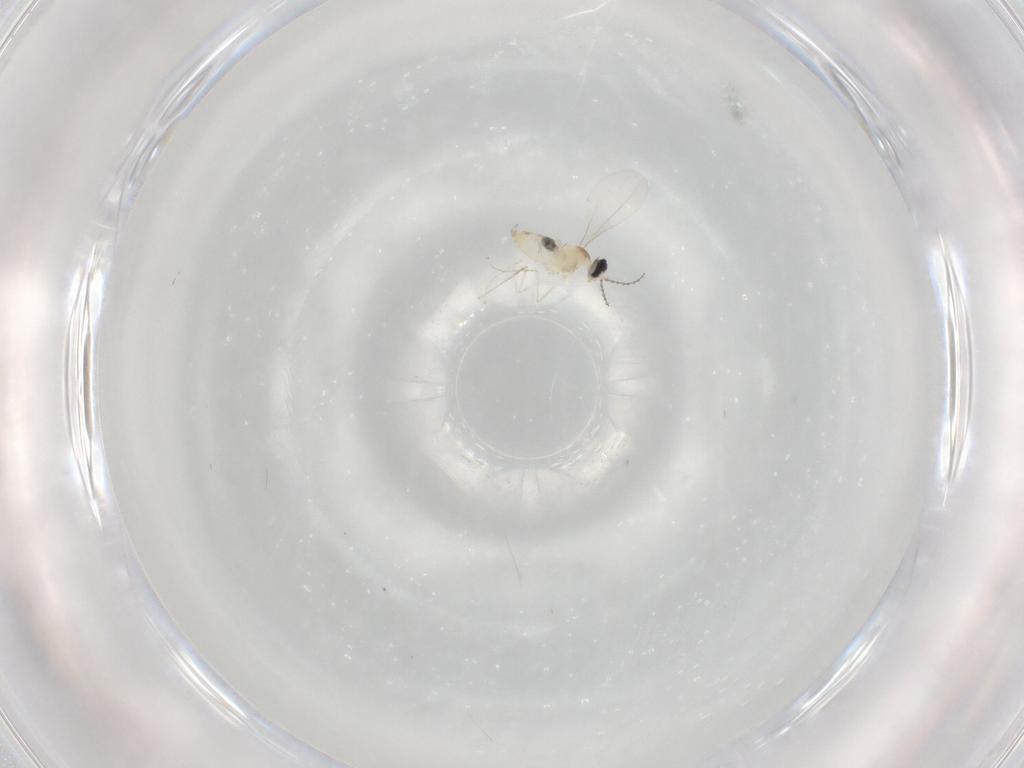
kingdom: Animalia
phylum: Arthropoda
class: Insecta
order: Diptera
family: Cecidomyiidae
